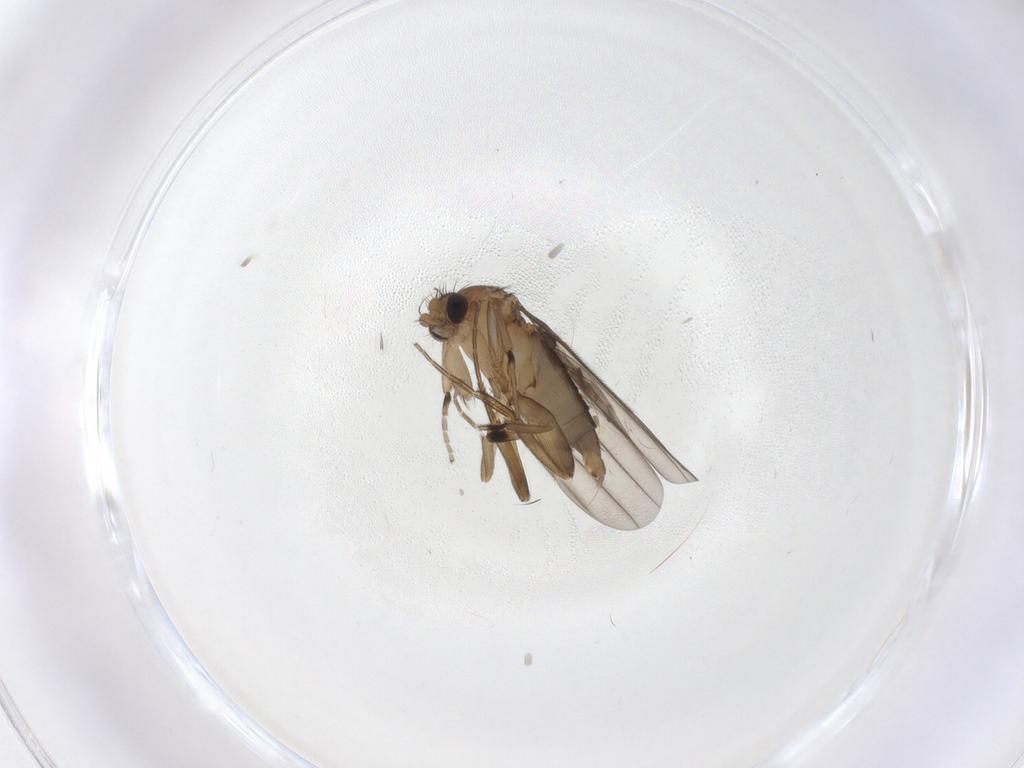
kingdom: Animalia
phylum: Arthropoda
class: Insecta
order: Diptera
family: Phoridae
